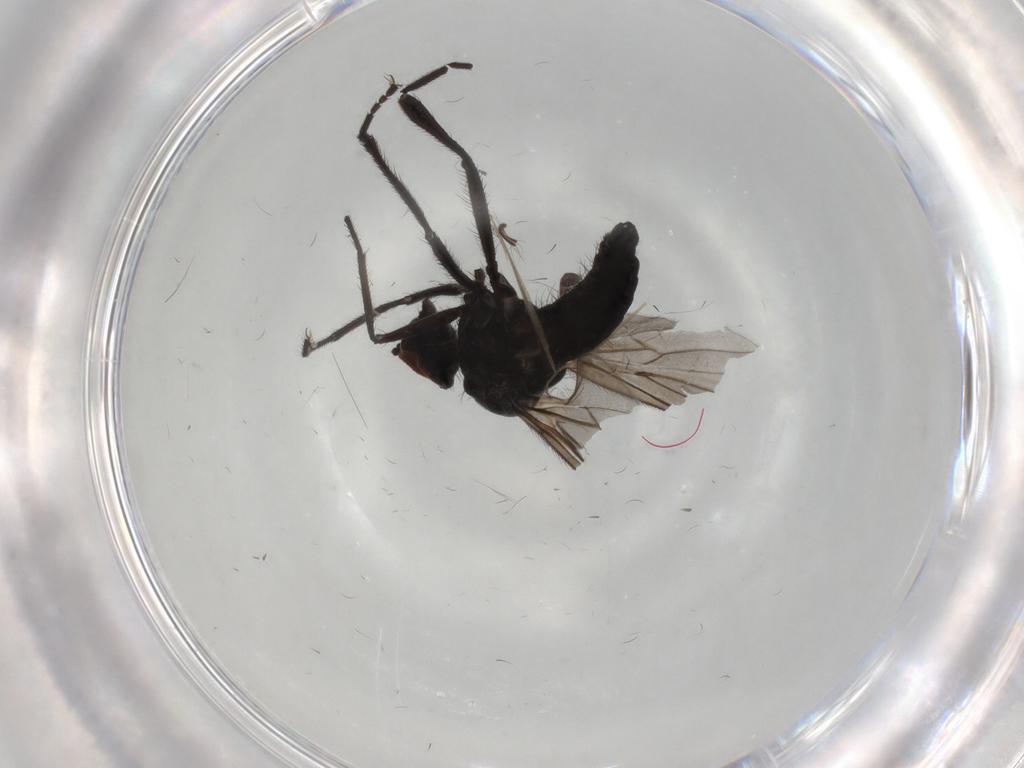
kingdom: Animalia
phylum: Arthropoda
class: Insecta
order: Diptera
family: Hybotidae
